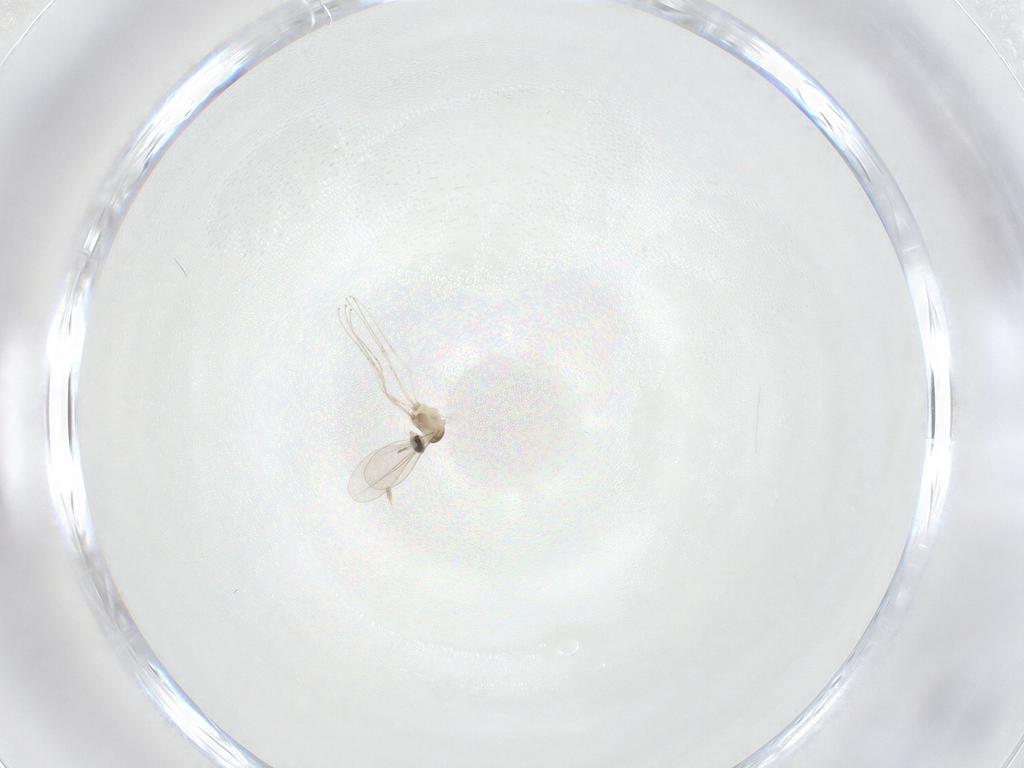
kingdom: Animalia
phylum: Arthropoda
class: Insecta
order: Diptera
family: Cecidomyiidae
